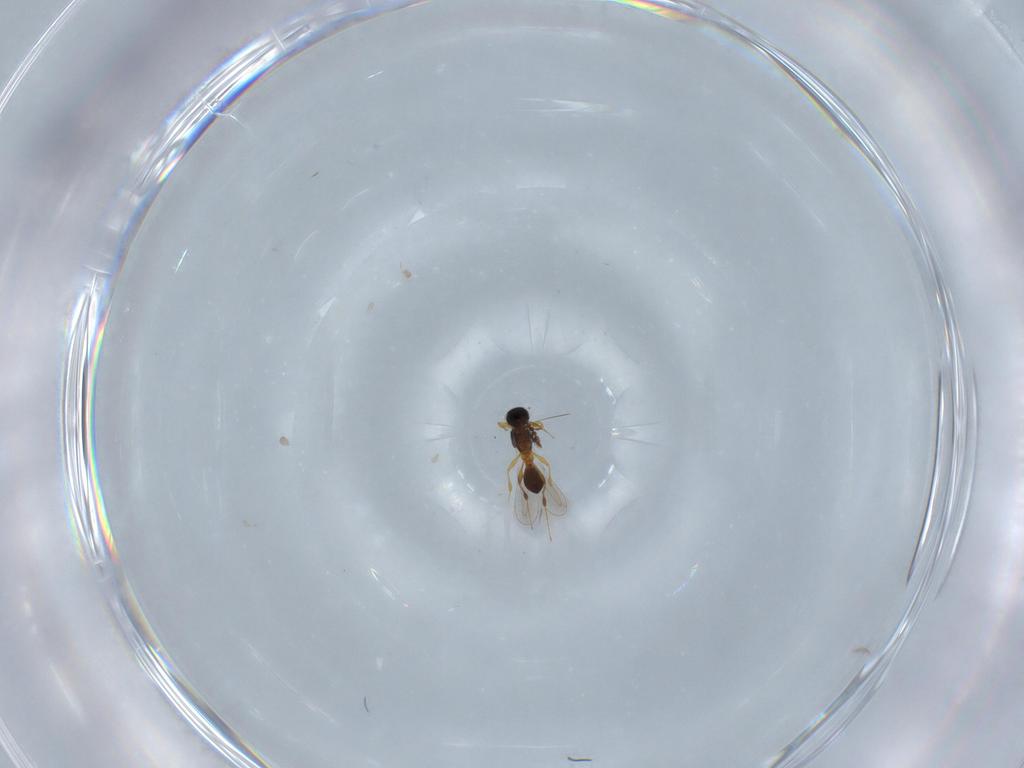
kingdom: Animalia
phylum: Arthropoda
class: Insecta
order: Hymenoptera
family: Platygastridae
